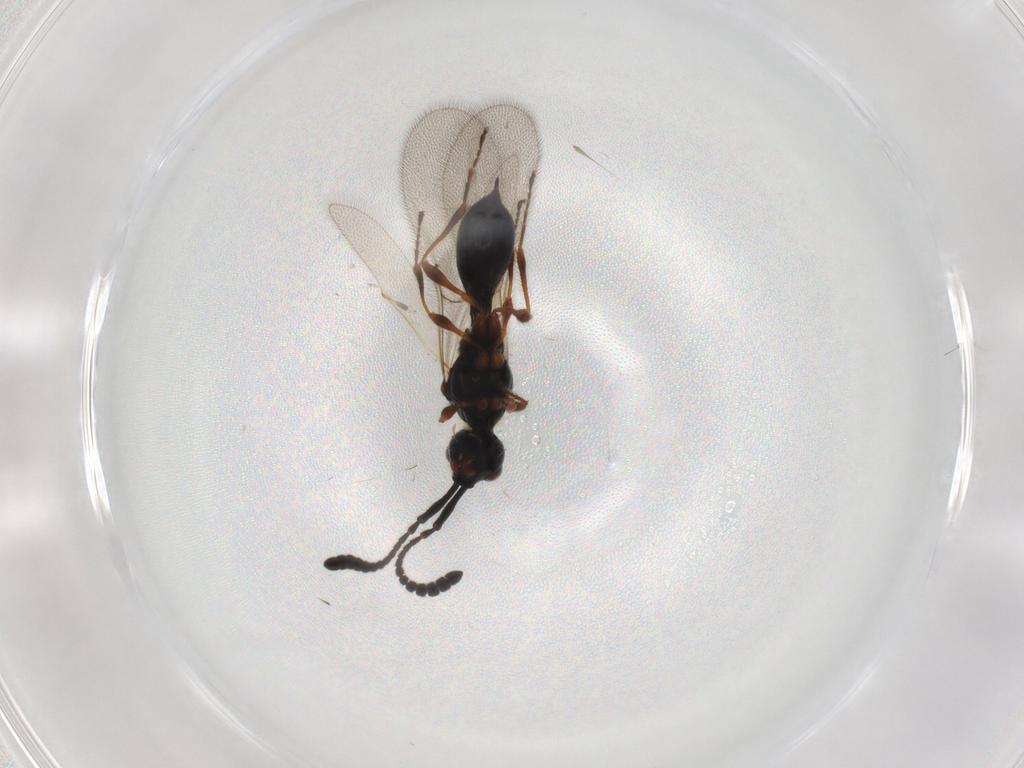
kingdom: Animalia
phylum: Arthropoda
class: Insecta
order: Hymenoptera
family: Diapriidae
